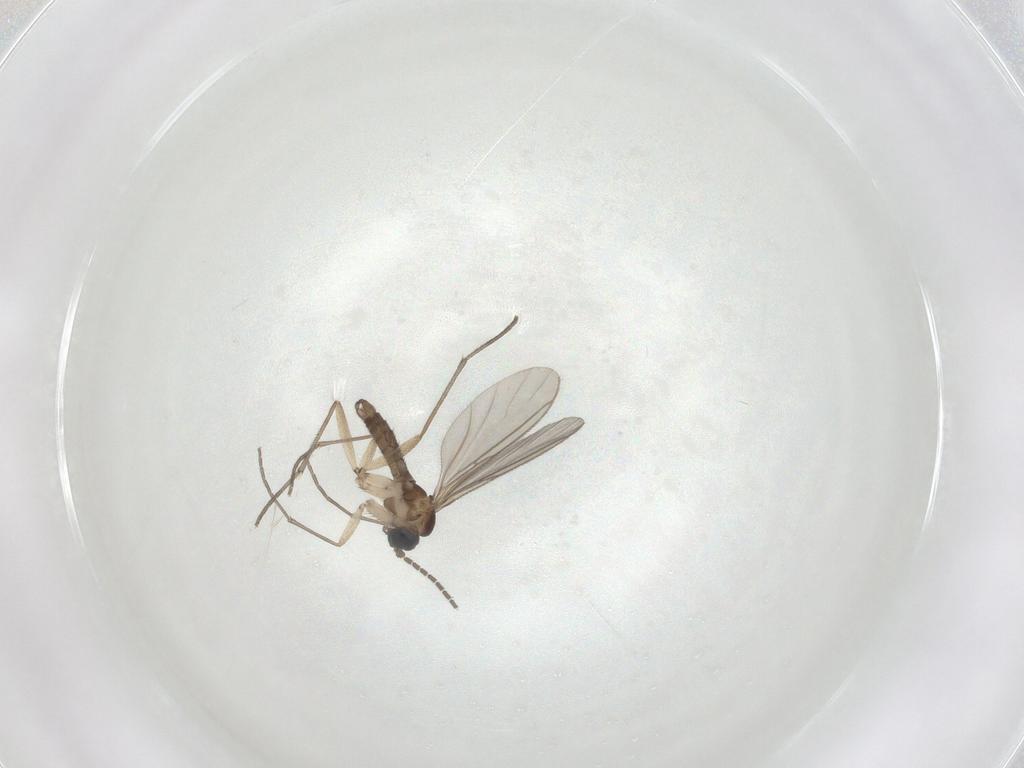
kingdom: Animalia
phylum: Arthropoda
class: Insecta
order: Diptera
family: Sciaridae
